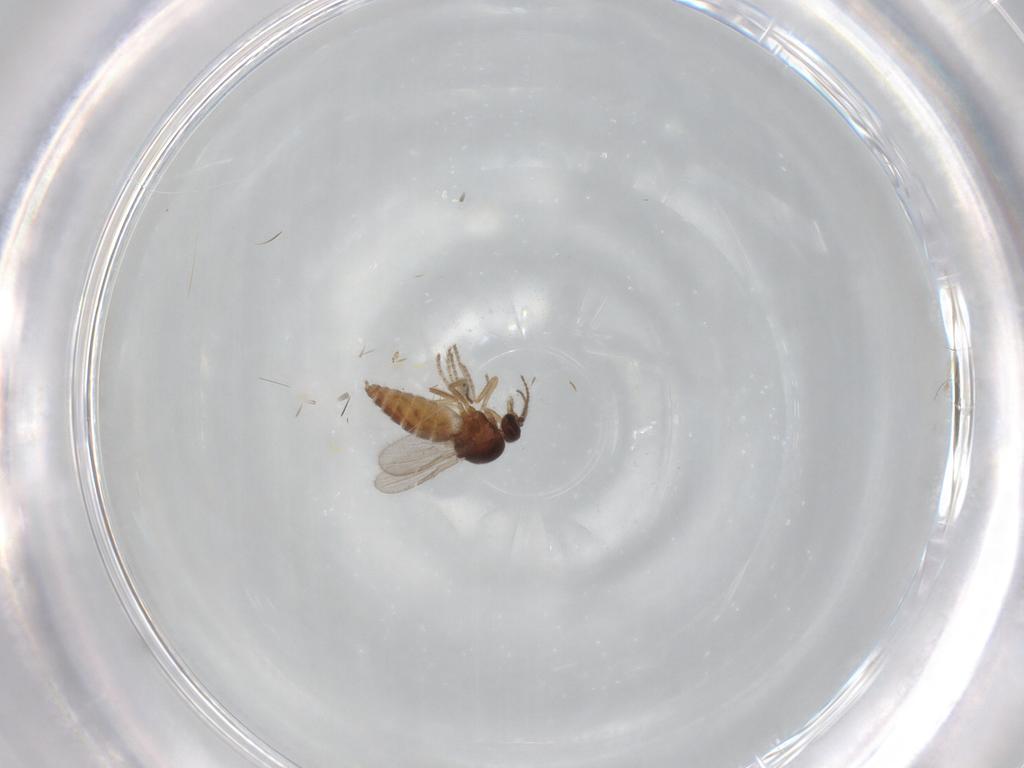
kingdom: Animalia
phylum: Arthropoda
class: Insecta
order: Diptera
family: Ceratopogonidae
